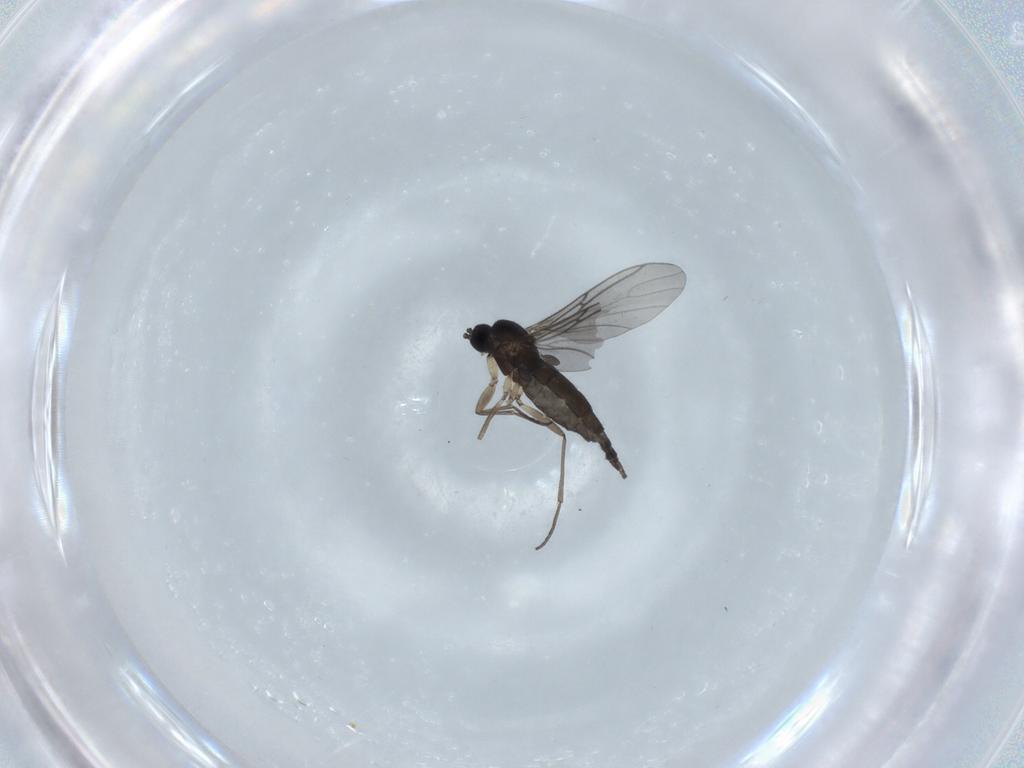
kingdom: Animalia
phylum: Arthropoda
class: Insecta
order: Diptera
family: Sciaridae
